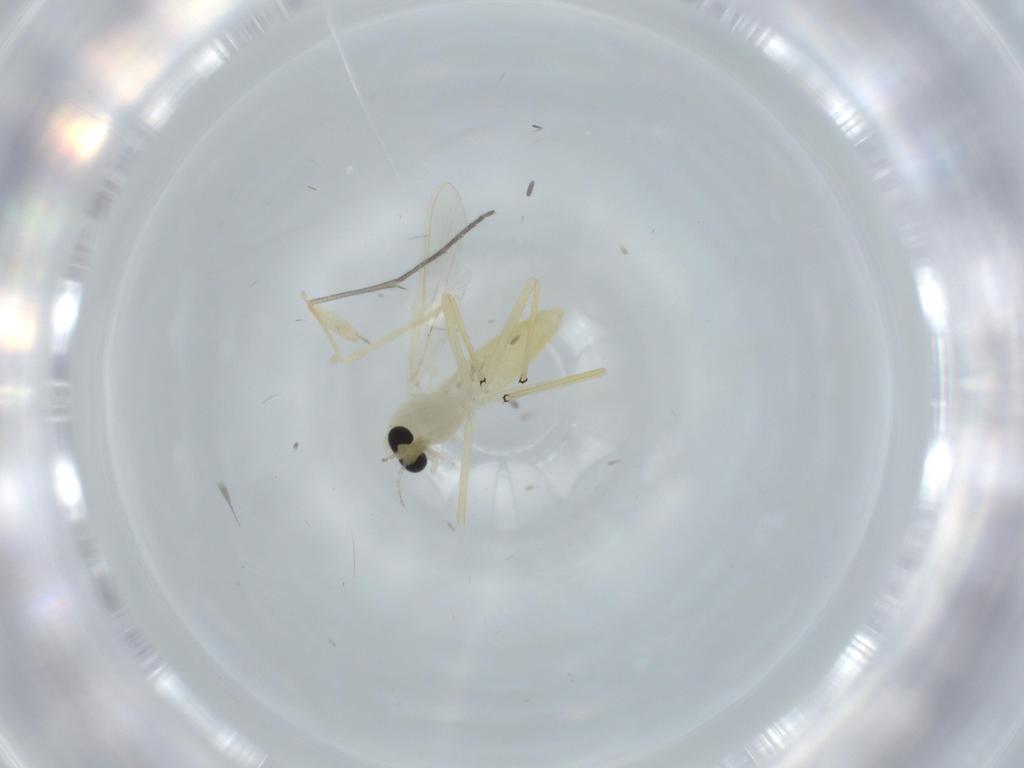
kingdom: Animalia
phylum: Arthropoda
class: Insecta
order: Diptera
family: Chironomidae
